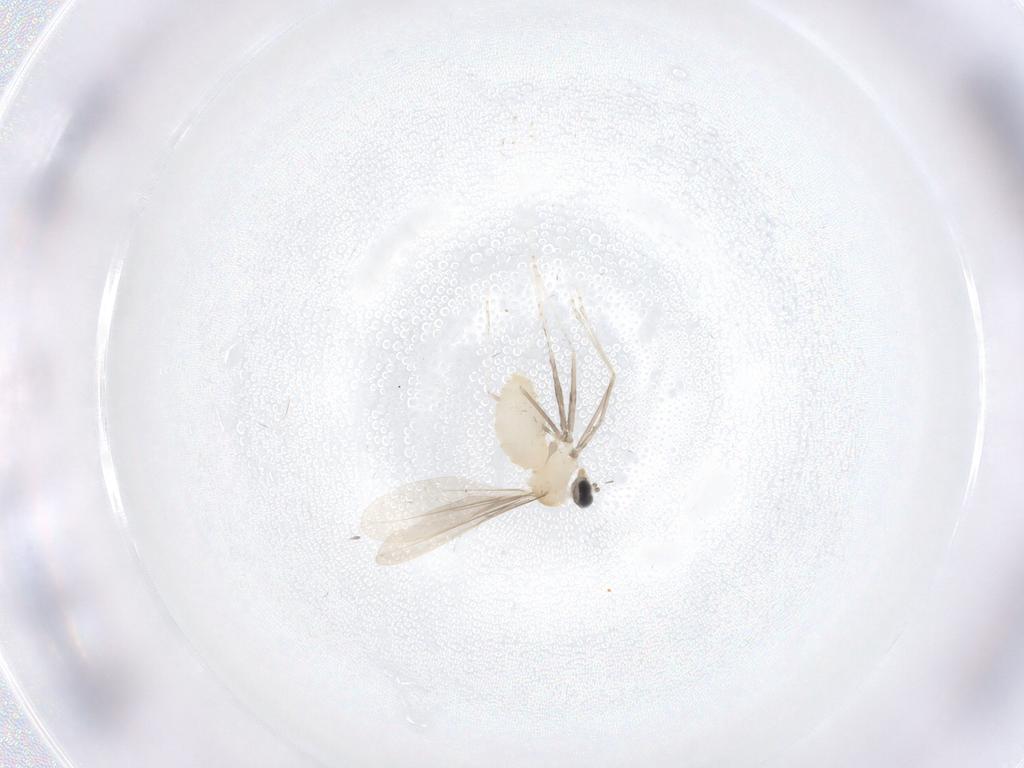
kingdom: Animalia
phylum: Arthropoda
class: Insecta
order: Diptera
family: Cecidomyiidae
